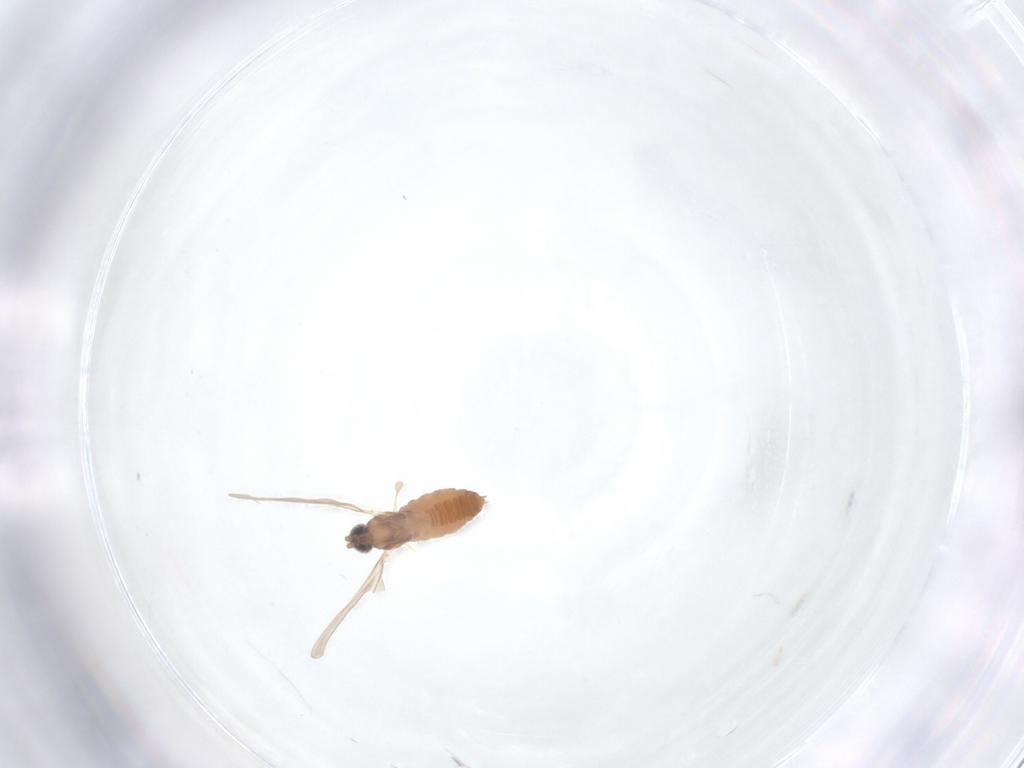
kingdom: Animalia
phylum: Arthropoda
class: Insecta
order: Diptera
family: Cecidomyiidae
